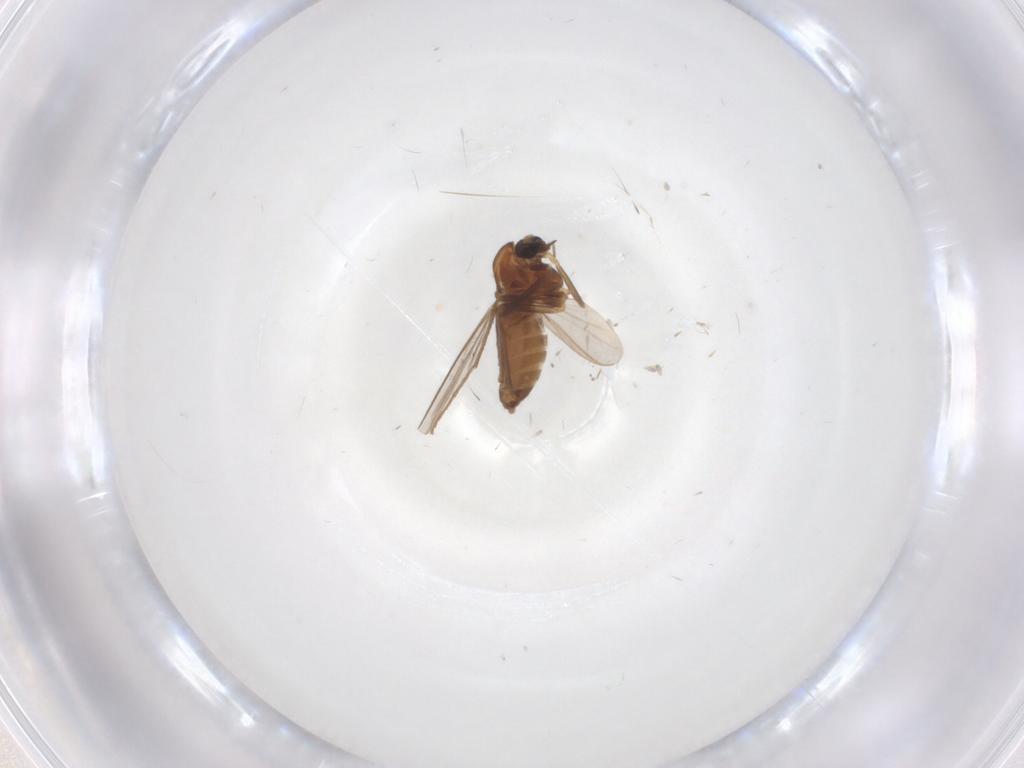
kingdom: Animalia
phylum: Arthropoda
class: Insecta
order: Diptera
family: Chironomidae
